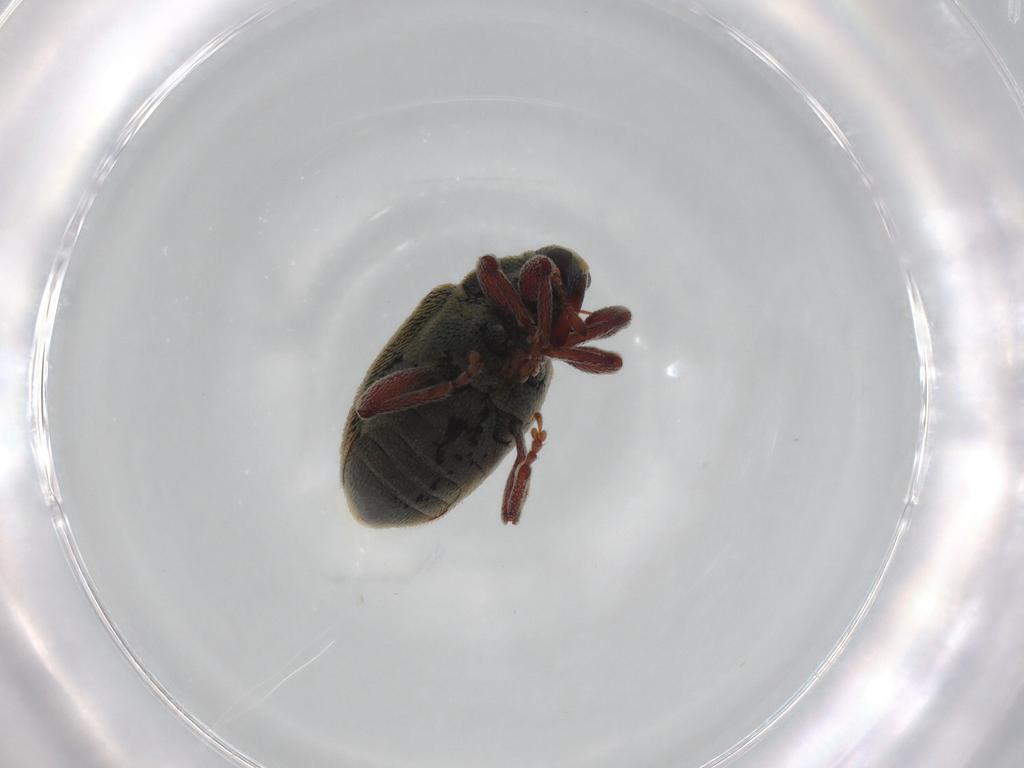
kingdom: Animalia
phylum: Arthropoda
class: Insecta
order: Coleoptera
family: Curculionidae
